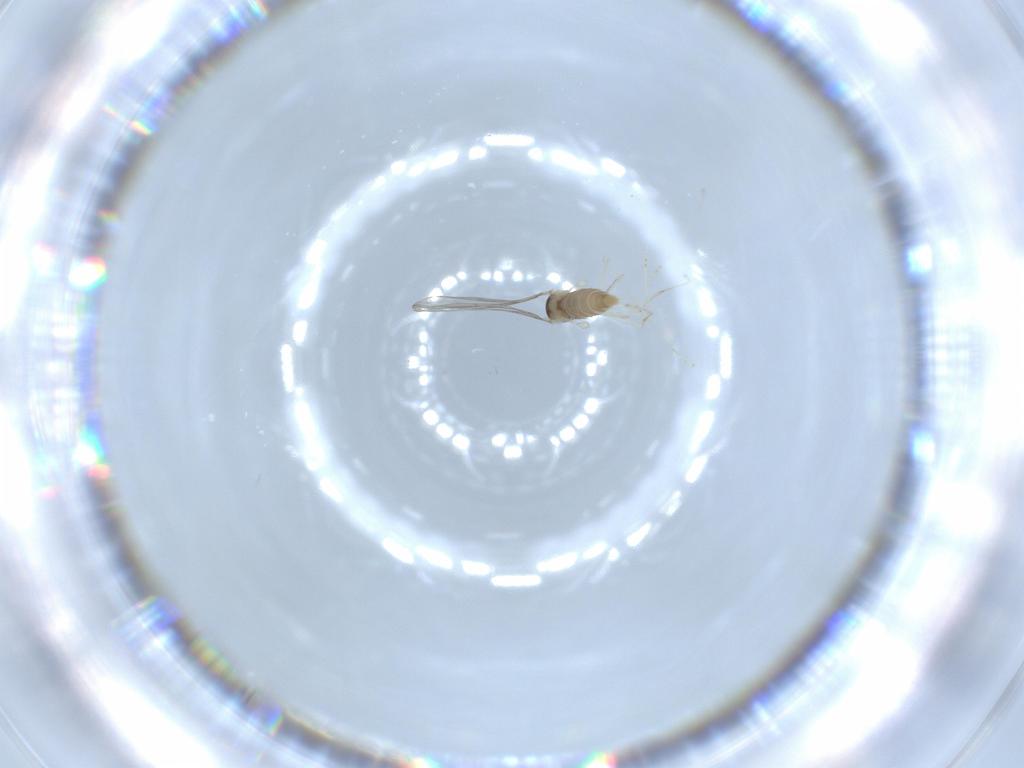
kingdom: Animalia
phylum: Arthropoda
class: Insecta
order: Diptera
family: Cecidomyiidae
